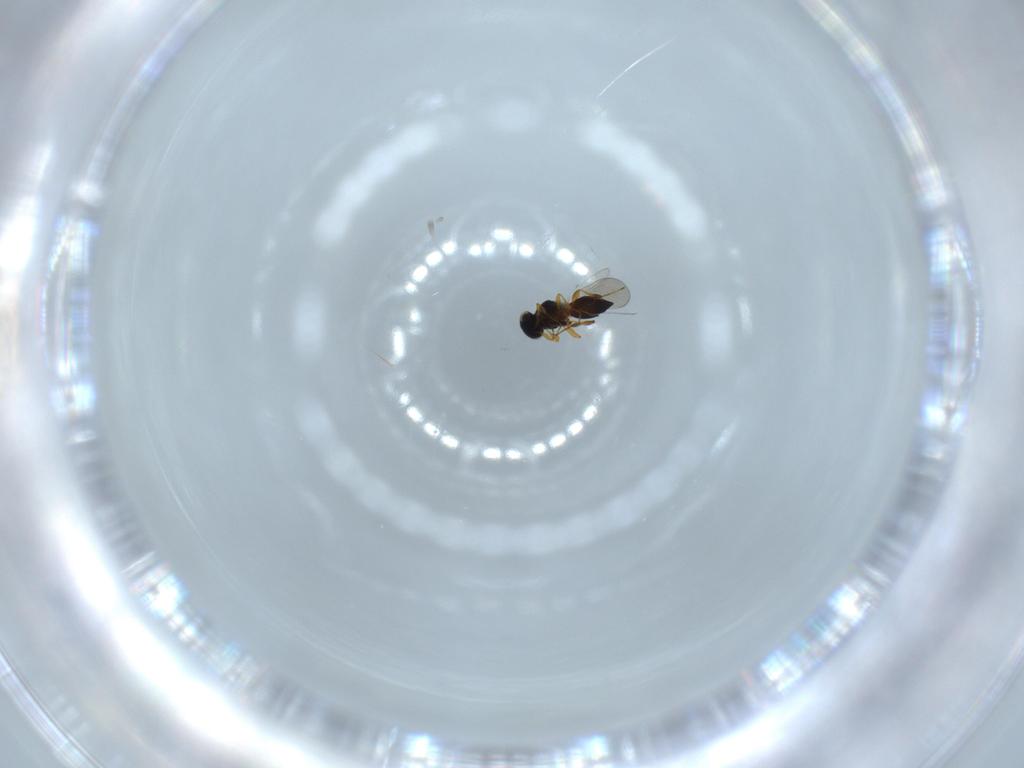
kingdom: Animalia
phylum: Arthropoda
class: Insecta
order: Hymenoptera
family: Platygastridae
